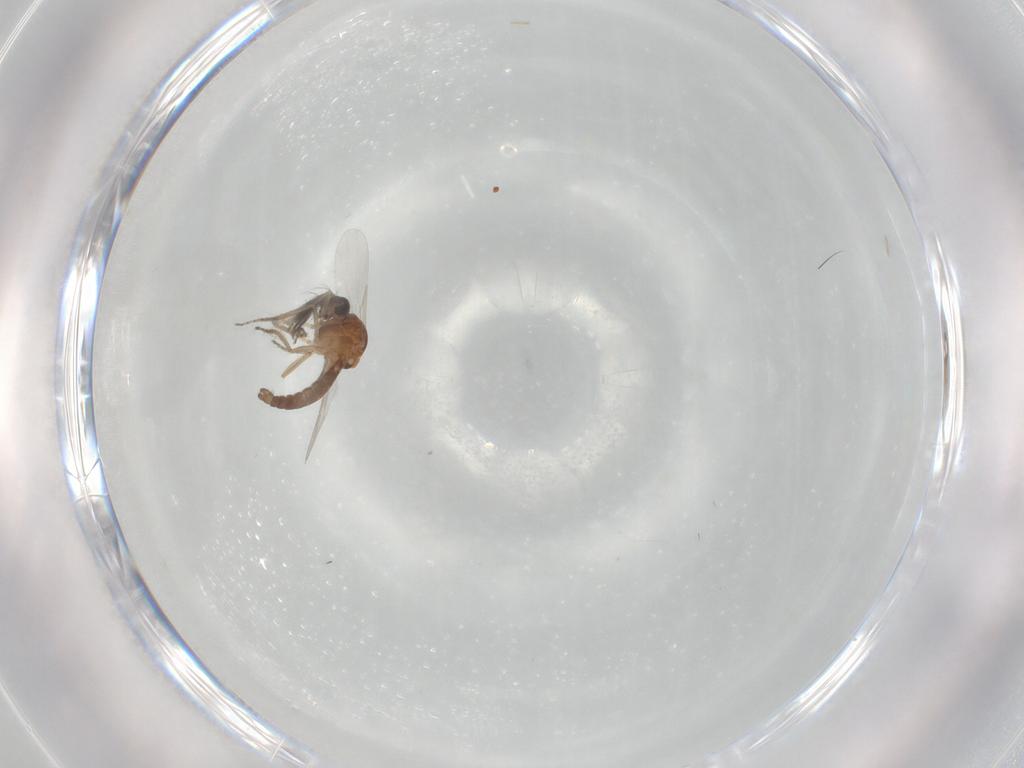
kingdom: Animalia
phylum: Arthropoda
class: Insecta
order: Diptera
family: Ceratopogonidae
